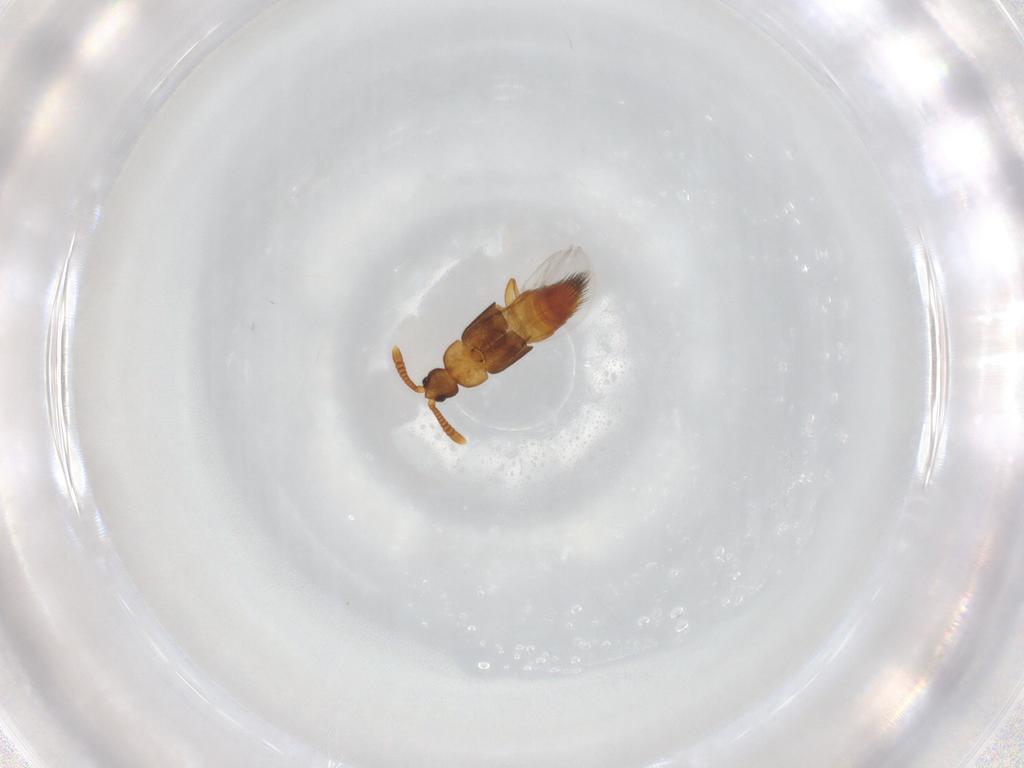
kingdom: Animalia
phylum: Arthropoda
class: Insecta
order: Coleoptera
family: Staphylinidae
